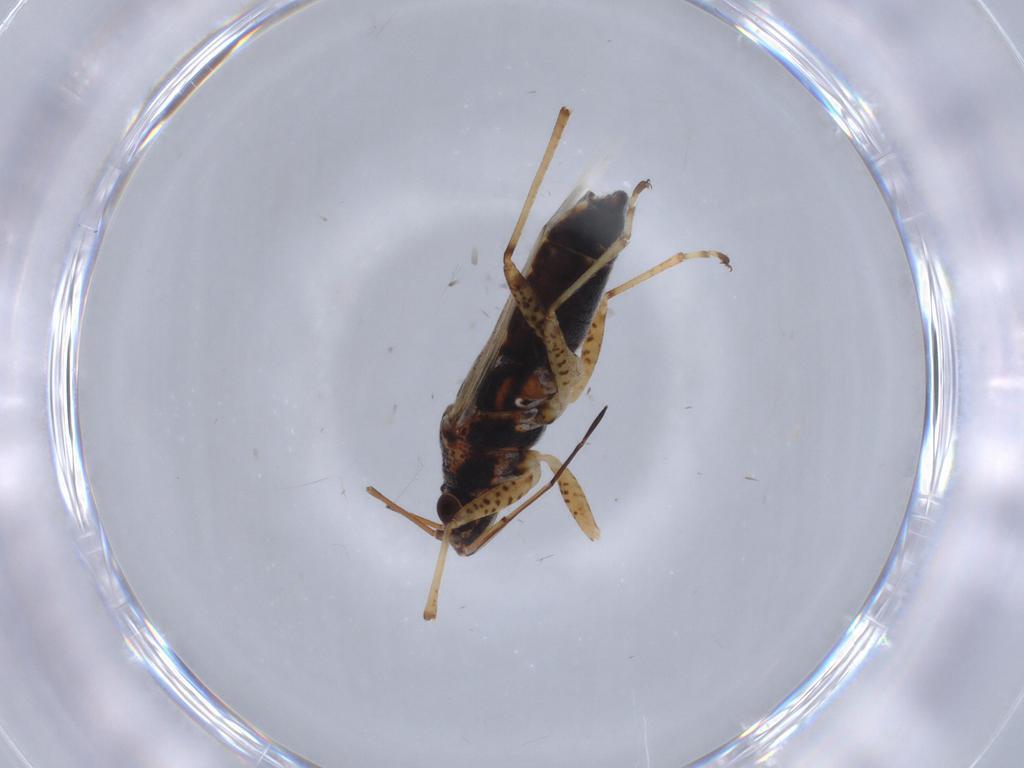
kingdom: Animalia
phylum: Arthropoda
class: Insecta
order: Hemiptera
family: Lygaeidae
